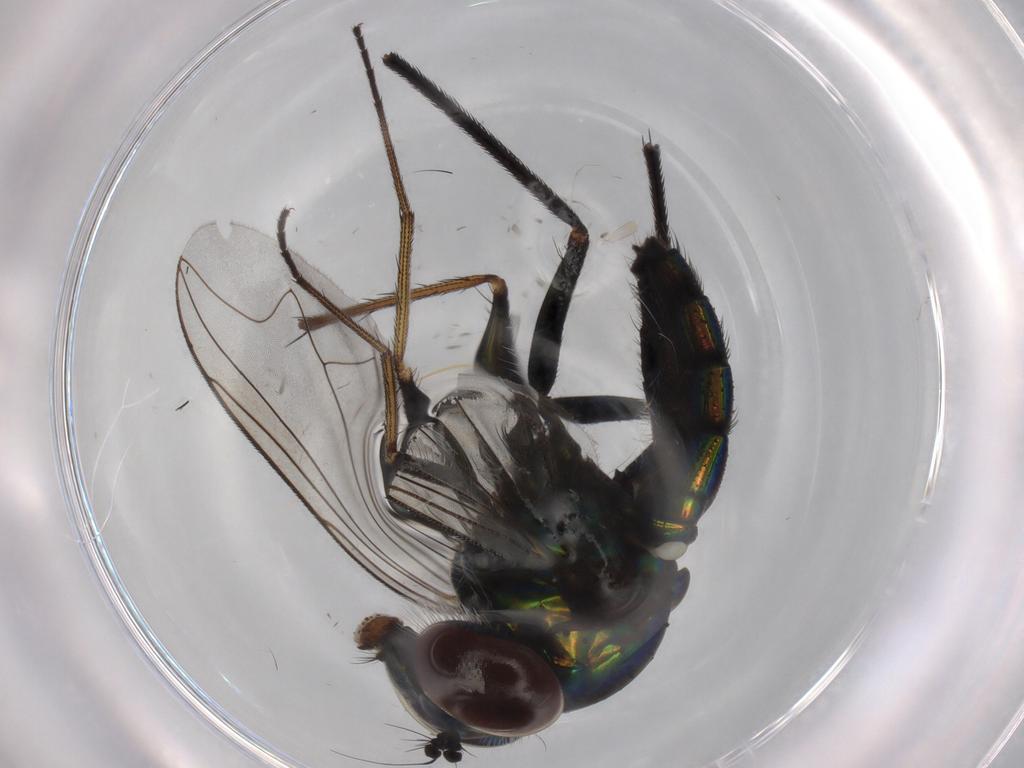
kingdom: Animalia
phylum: Arthropoda
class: Insecta
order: Diptera
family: Dolichopodidae
